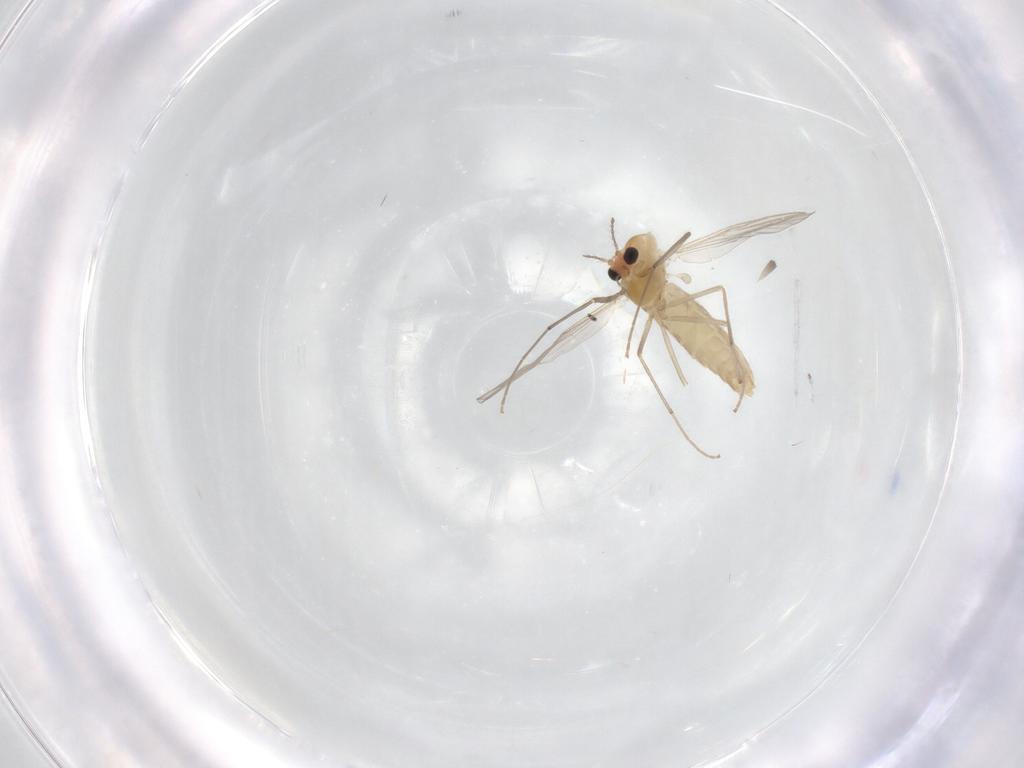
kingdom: Animalia
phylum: Arthropoda
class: Insecta
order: Diptera
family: Chironomidae
